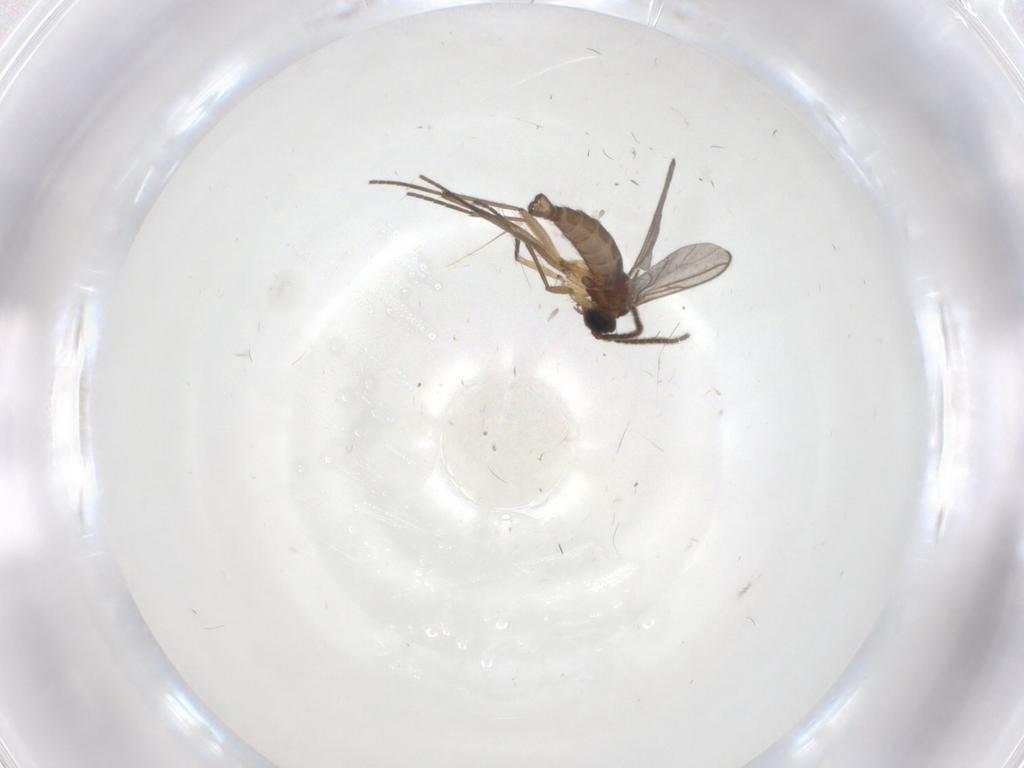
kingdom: Animalia
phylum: Arthropoda
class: Insecta
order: Diptera
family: Sciaridae
